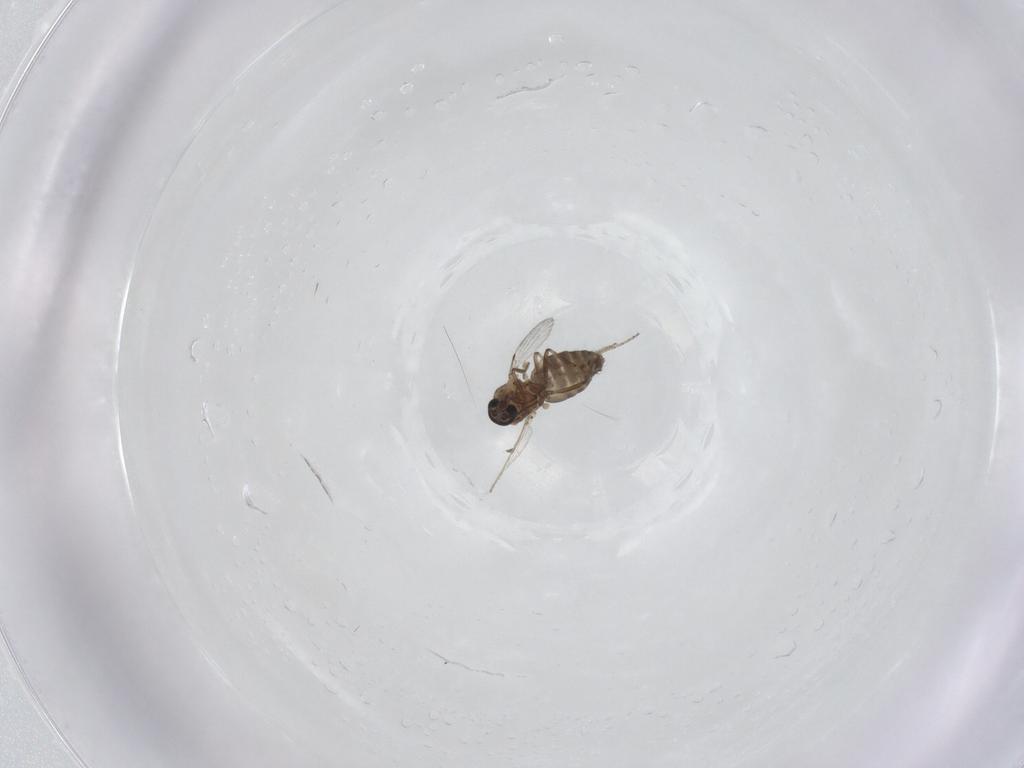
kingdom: Animalia
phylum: Arthropoda
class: Insecta
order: Diptera
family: Ceratopogonidae
